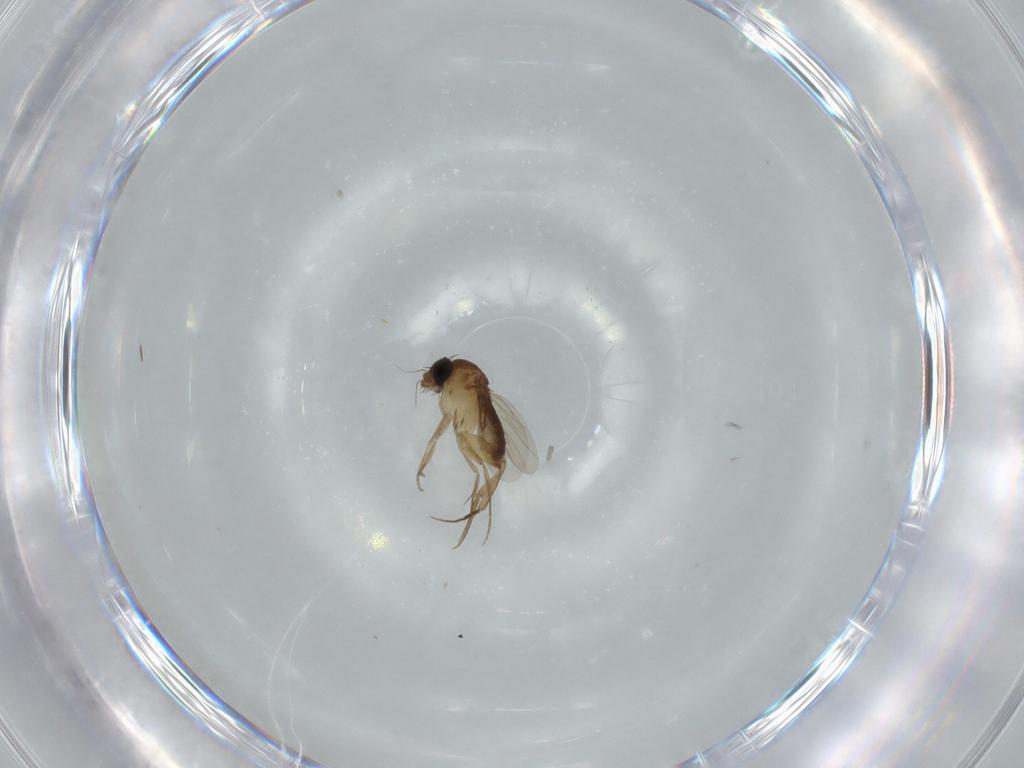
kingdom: Animalia
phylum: Arthropoda
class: Insecta
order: Diptera
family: Phoridae
